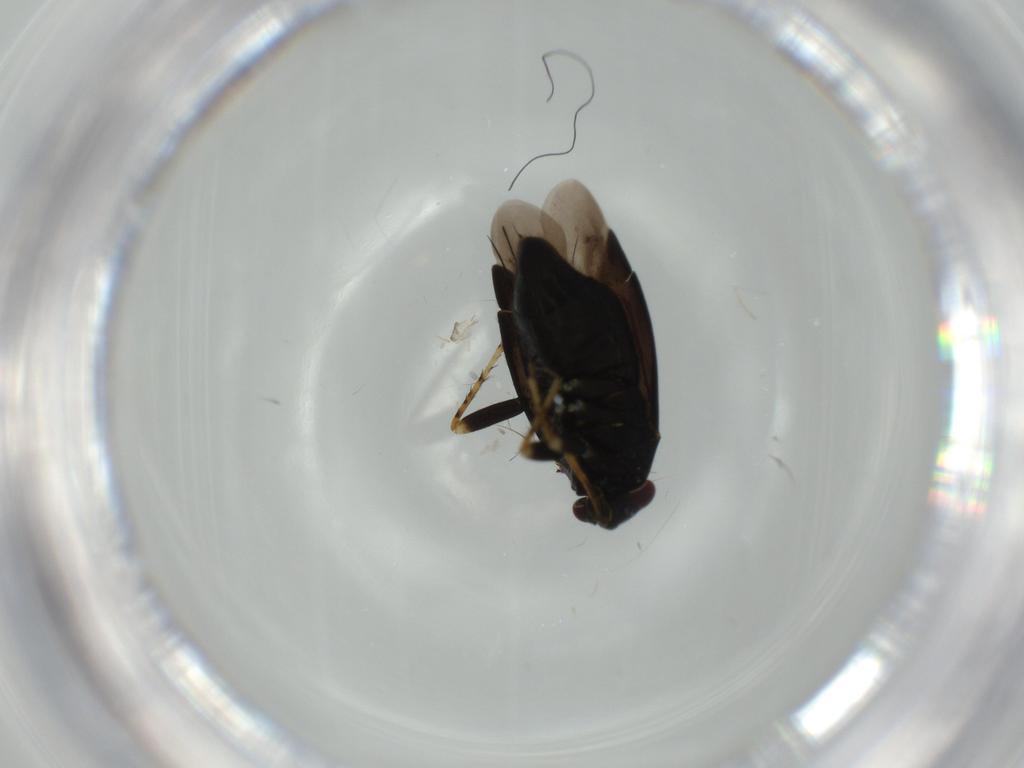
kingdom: Animalia
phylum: Arthropoda
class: Insecta
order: Hemiptera
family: Miridae
